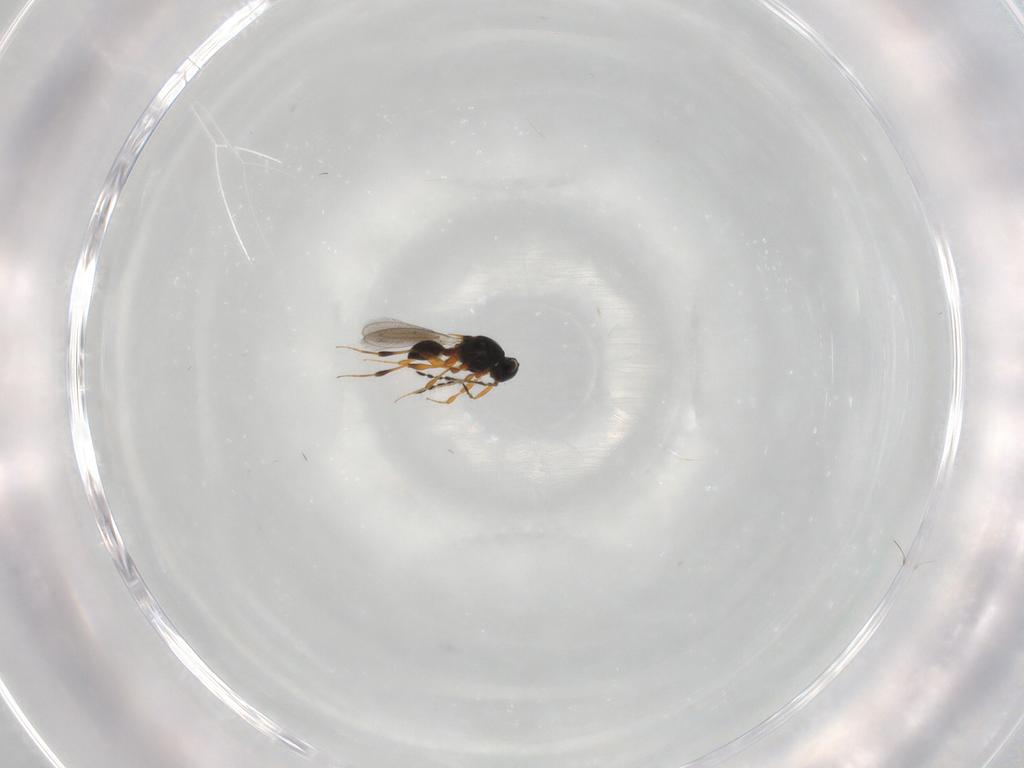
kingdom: Animalia
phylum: Arthropoda
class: Insecta
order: Hymenoptera
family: Platygastridae
